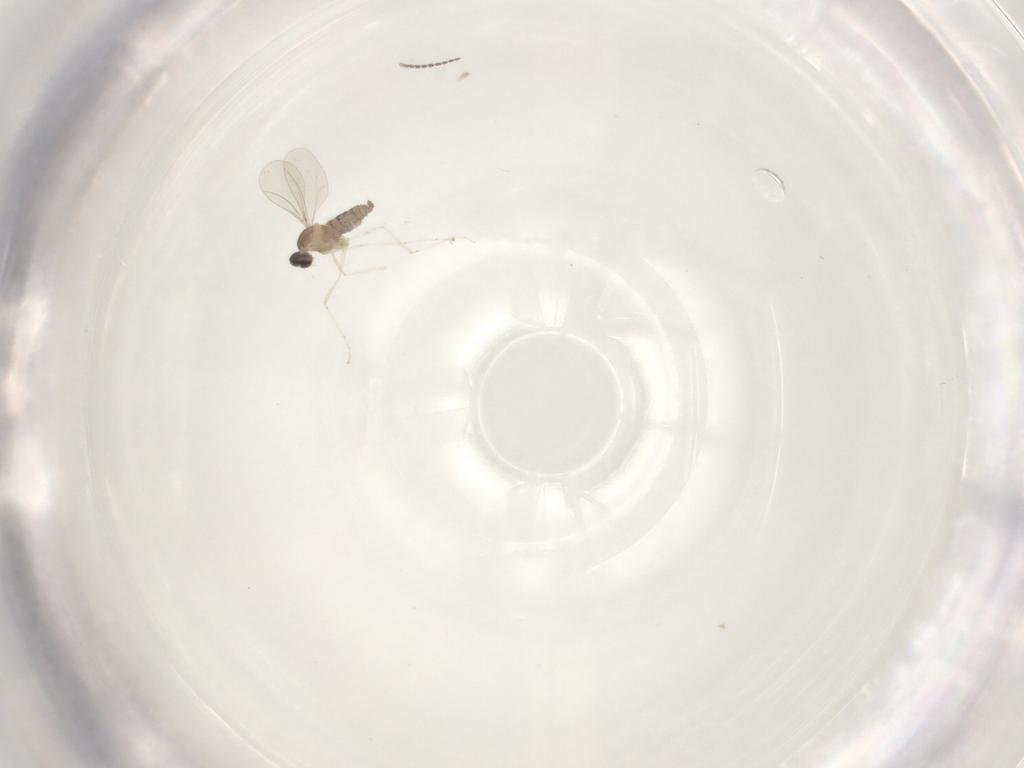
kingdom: Animalia
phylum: Arthropoda
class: Insecta
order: Diptera
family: Cecidomyiidae
